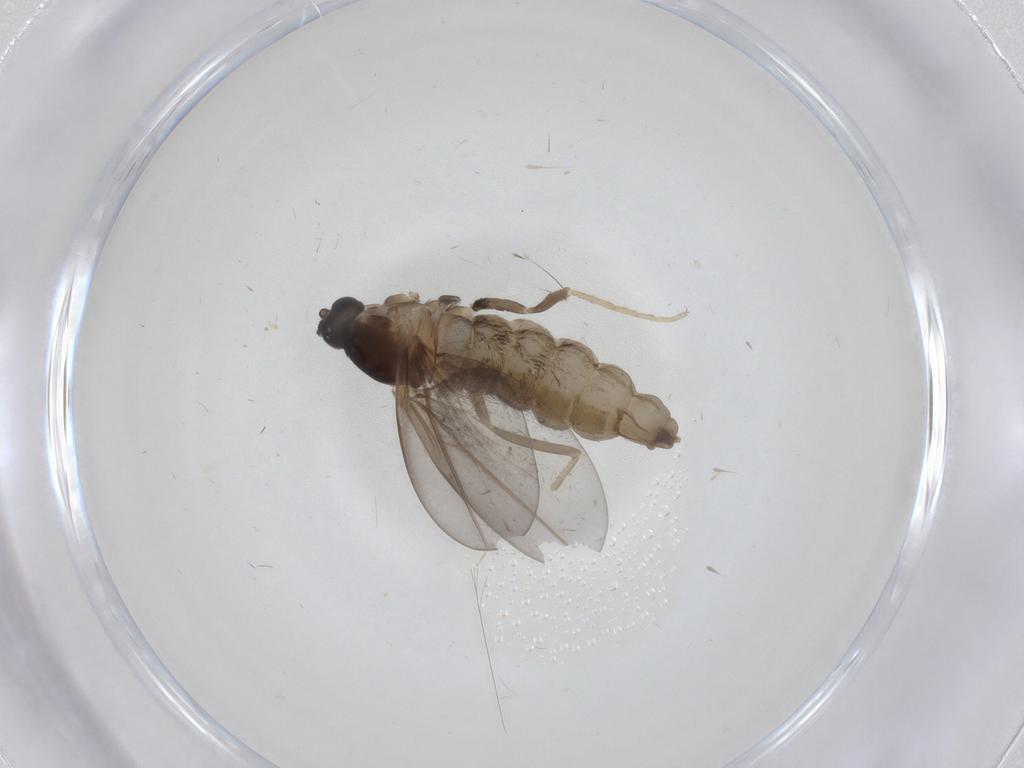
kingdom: Animalia
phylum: Arthropoda
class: Insecta
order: Diptera
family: Cecidomyiidae
